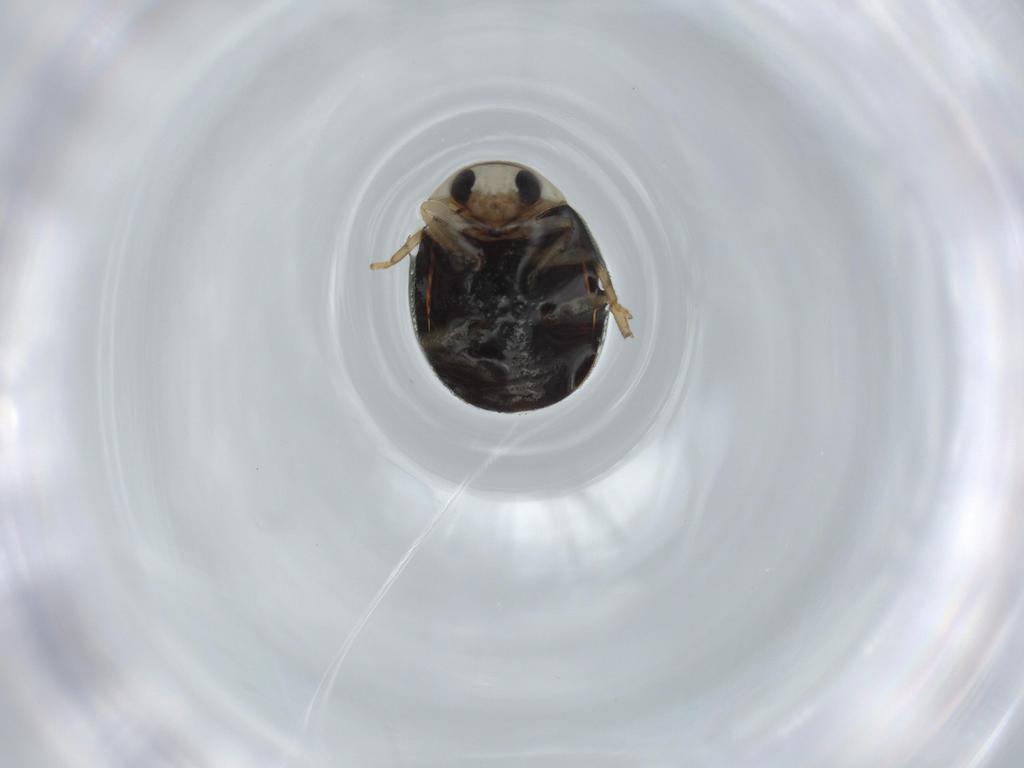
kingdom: Animalia
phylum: Arthropoda
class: Insecta
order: Coleoptera
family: Coccinellidae
